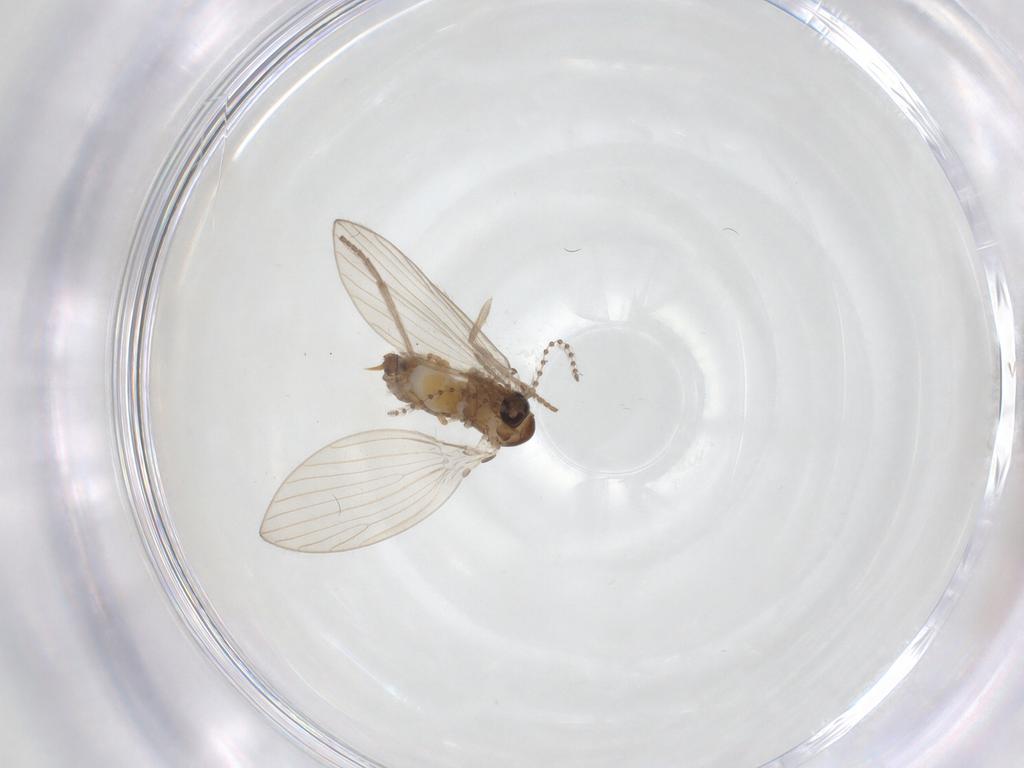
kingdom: Animalia
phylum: Arthropoda
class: Insecta
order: Diptera
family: Psychodidae
